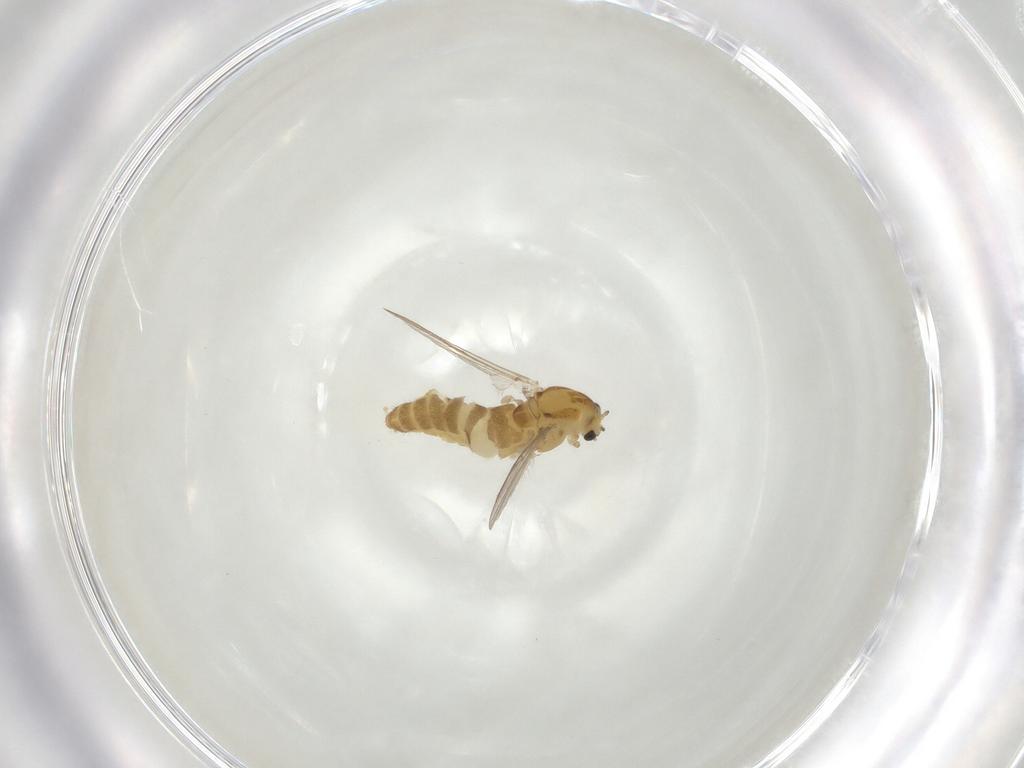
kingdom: Animalia
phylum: Arthropoda
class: Insecta
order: Diptera
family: Chironomidae
